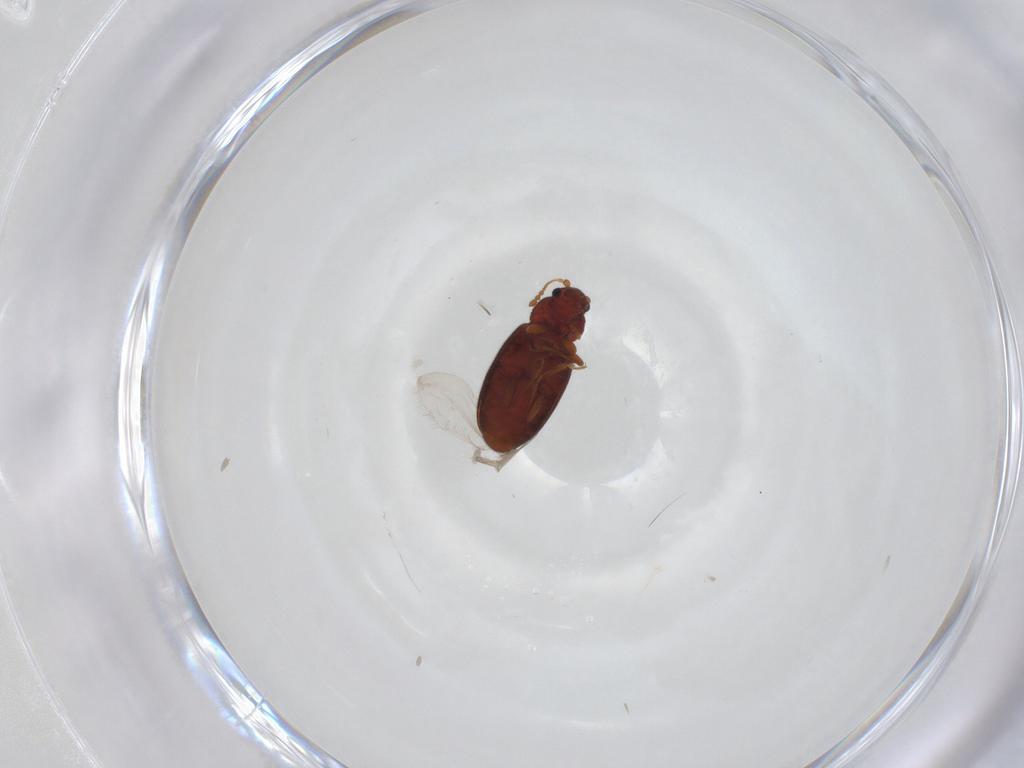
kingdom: Animalia
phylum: Arthropoda
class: Insecta
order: Coleoptera
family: Latridiidae
